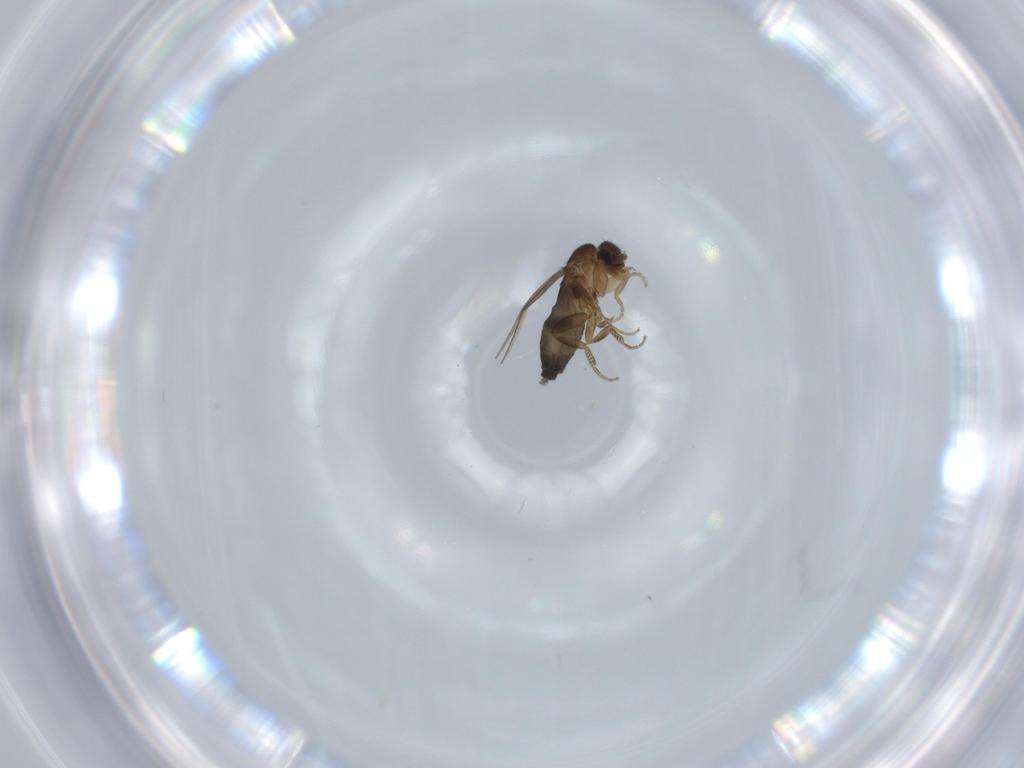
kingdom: Animalia
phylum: Arthropoda
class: Insecta
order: Diptera
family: Phoridae
